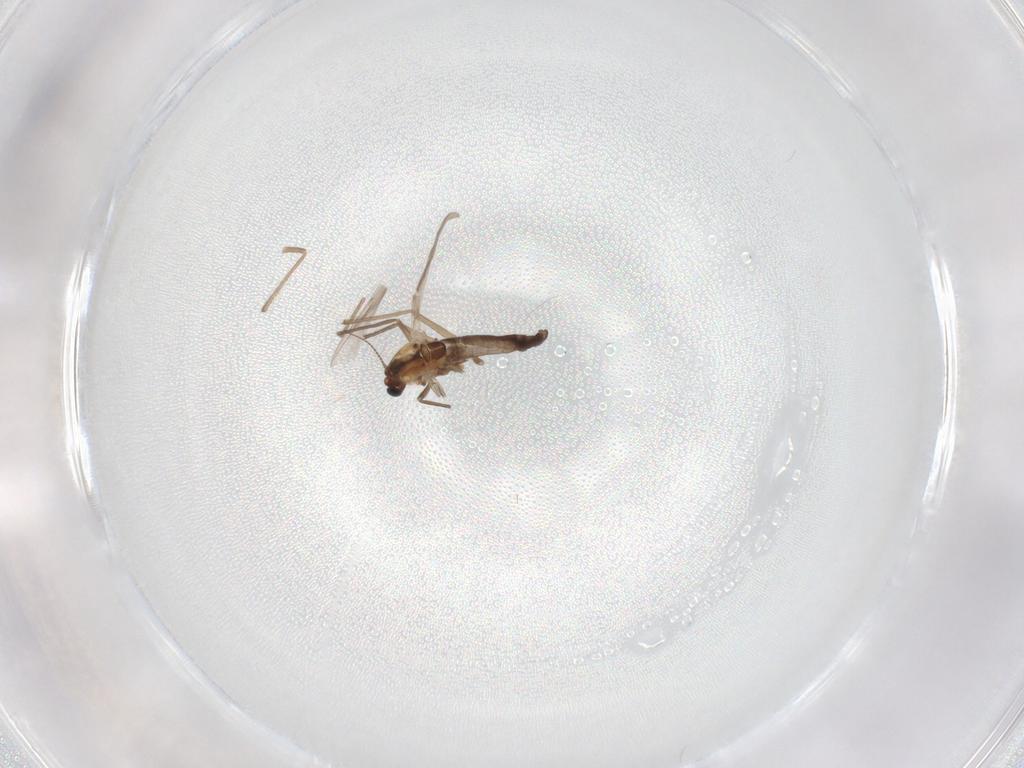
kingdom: Animalia
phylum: Arthropoda
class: Insecta
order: Diptera
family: Chironomidae
